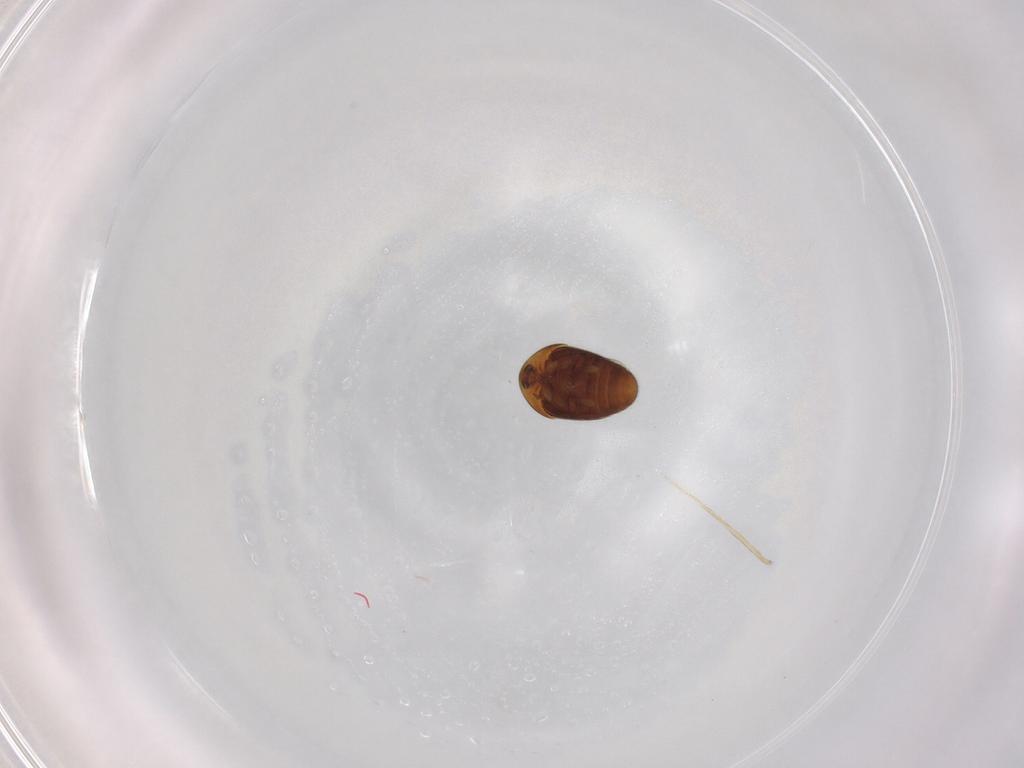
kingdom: Animalia
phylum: Arthropoda
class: Insecta
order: Coleoptera
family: Corylophidae
